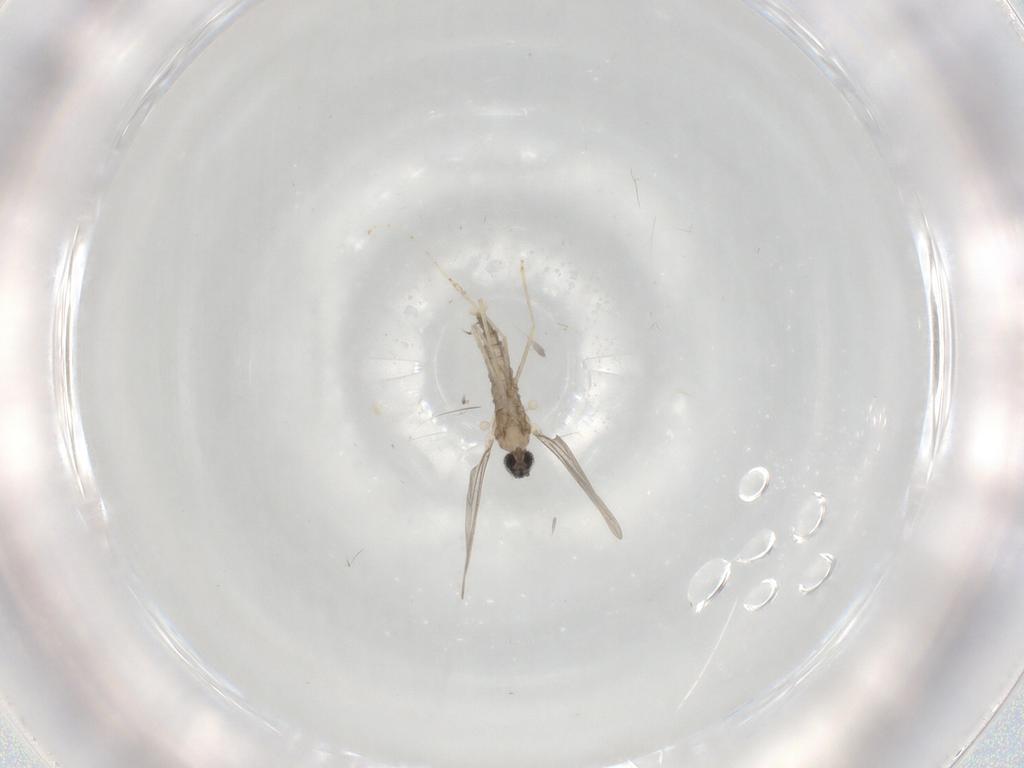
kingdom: Animalia
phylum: Arthropoda
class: Insecta
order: Diptera
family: Cecidomyiidae
